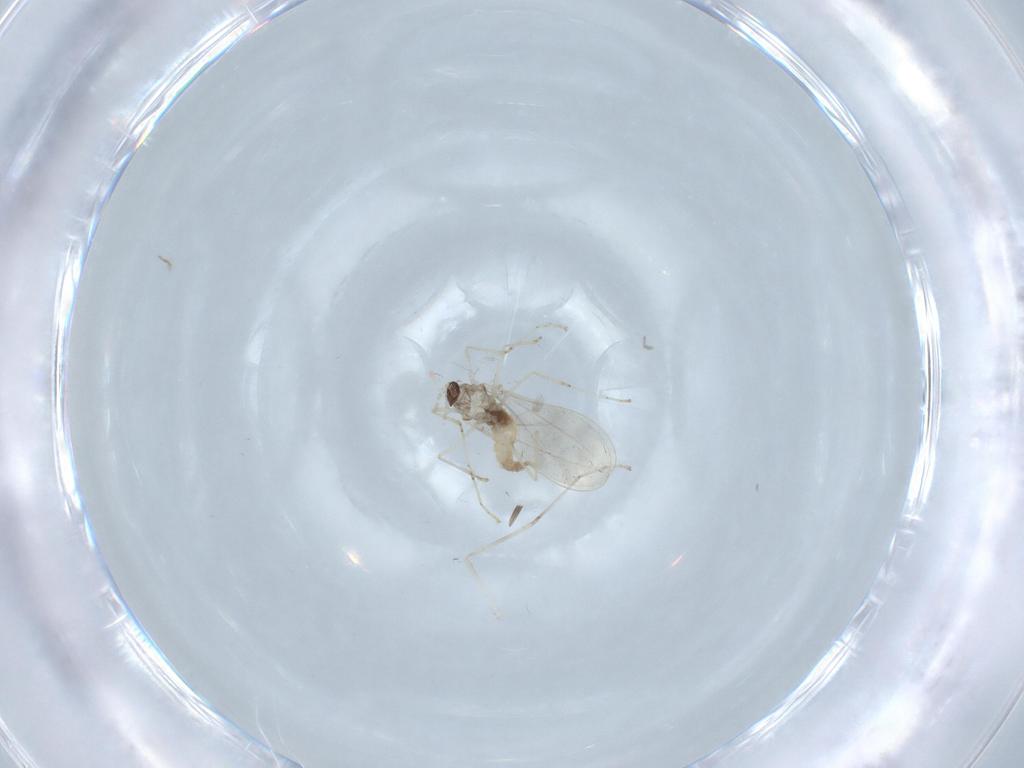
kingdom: Animalia
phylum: Arthropoda
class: Insecta
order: Diptera
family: Cecidomyiidae
